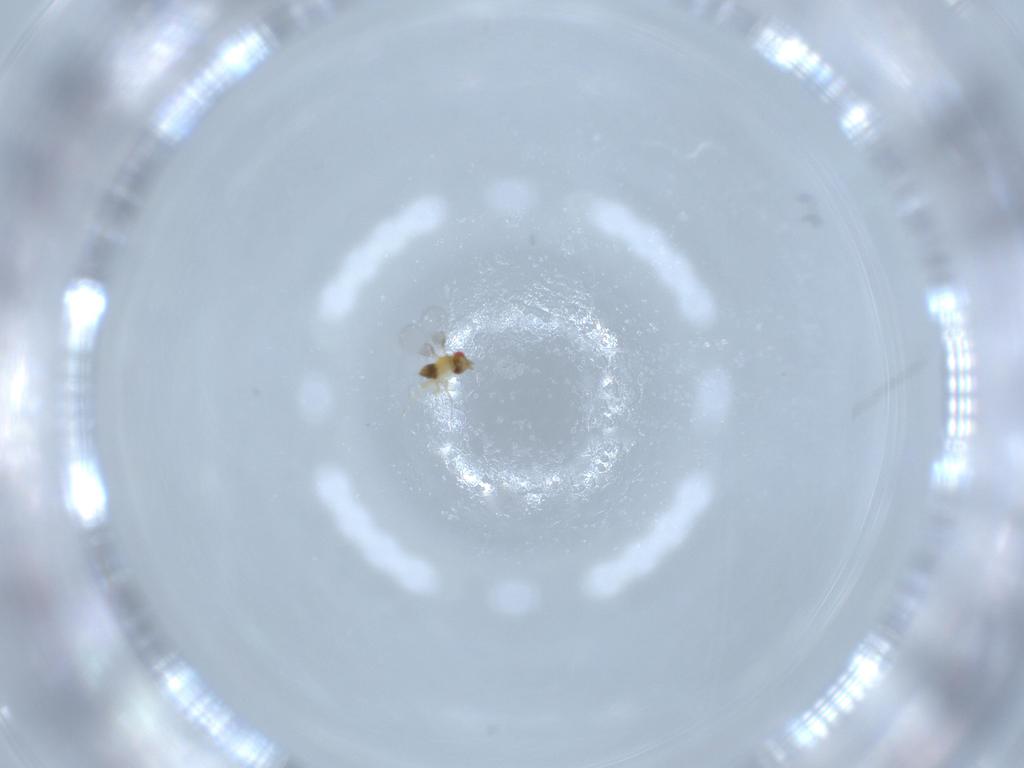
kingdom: Animalia
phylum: Arthropoda
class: Insecta
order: Hymenoptera
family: Trichogrammatidae
